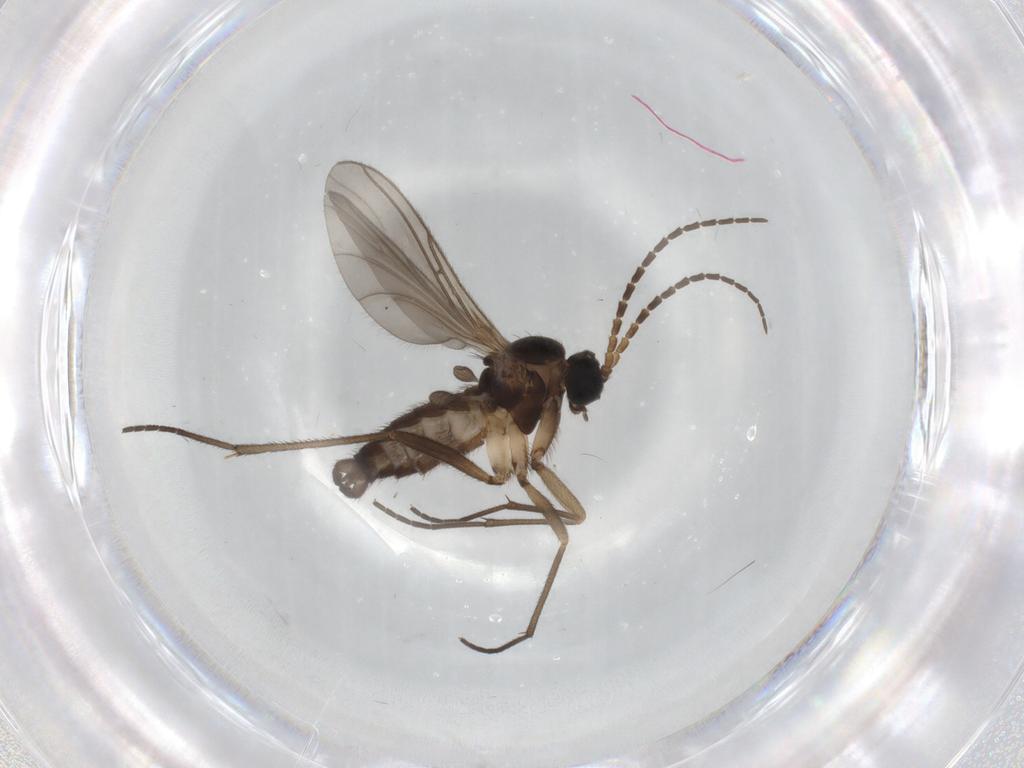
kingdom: Animalia
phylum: Arthropoda
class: Insecta
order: Diptera
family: Sciaridae
